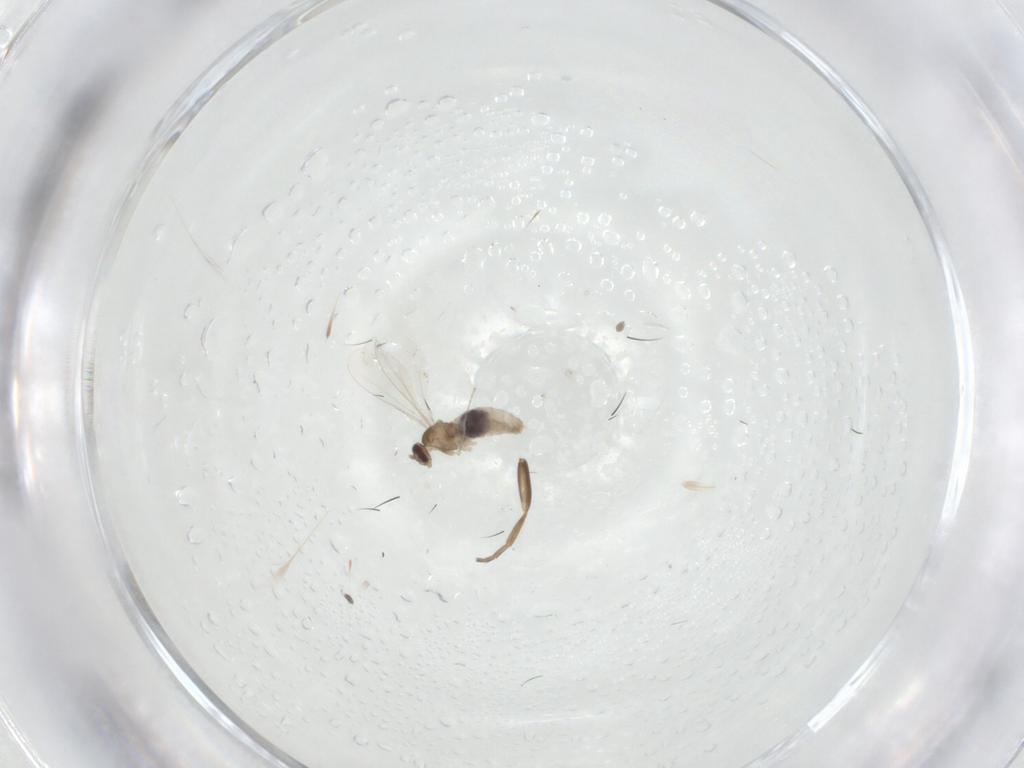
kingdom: Animalia
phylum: Arthropoda
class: Insecta
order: Diptera
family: Cecidomyiidae
